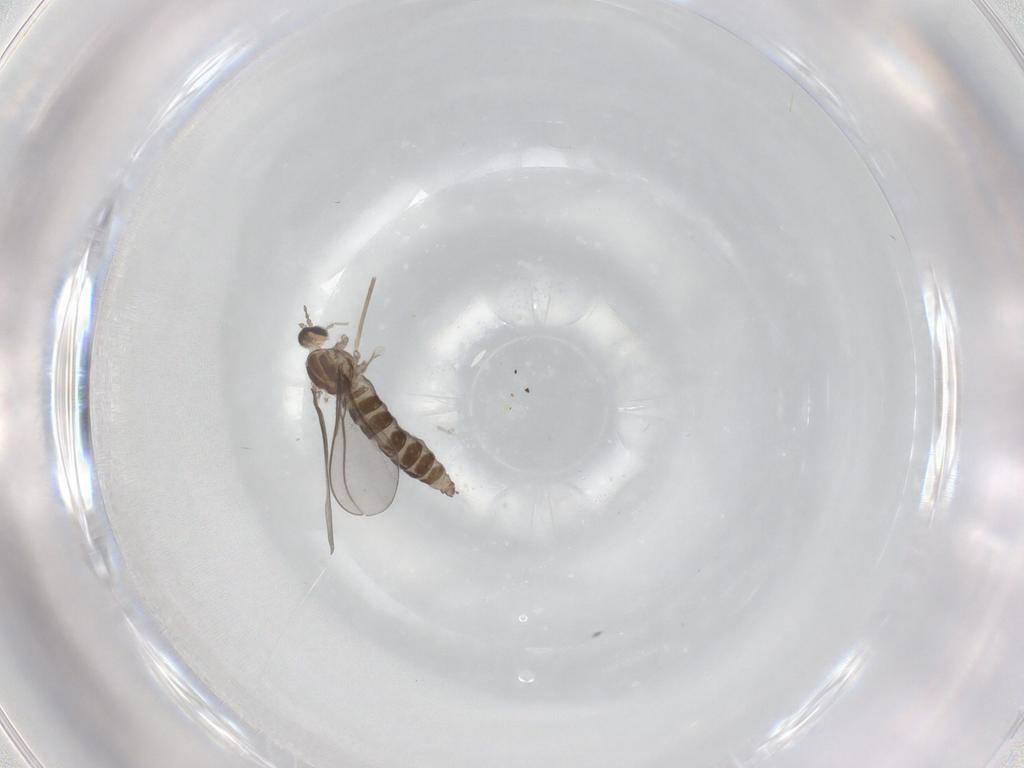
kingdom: Animalia
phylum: Arthropoda
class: Insecta
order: Diptera
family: Cecidomyiidae
